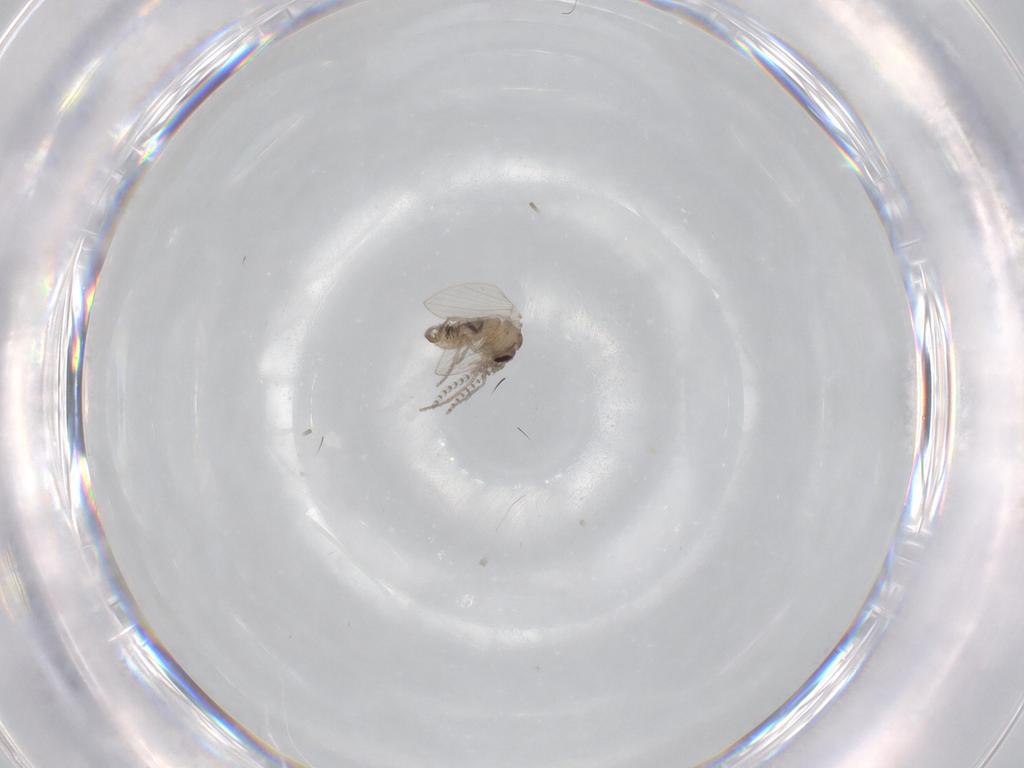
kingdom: Animalia
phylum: Arthropoda
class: Insecta
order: Diptera
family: Psychodidae
